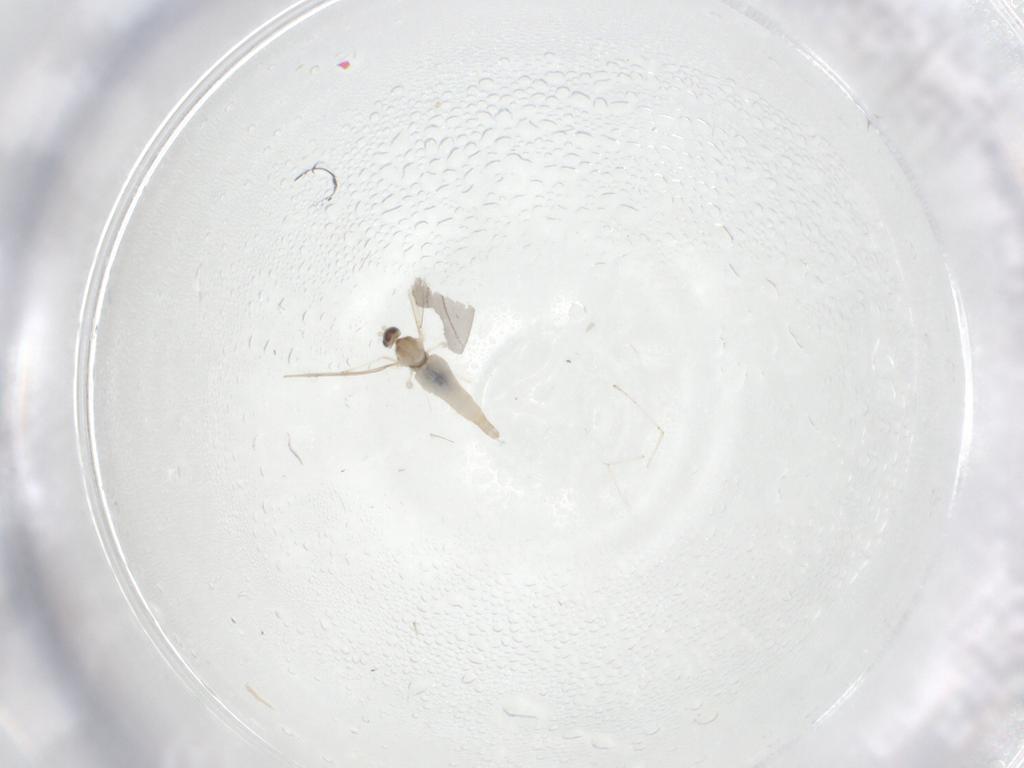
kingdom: Animalia
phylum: Arthropoda
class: Insecta
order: Diptera
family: Cecidomyiidae
